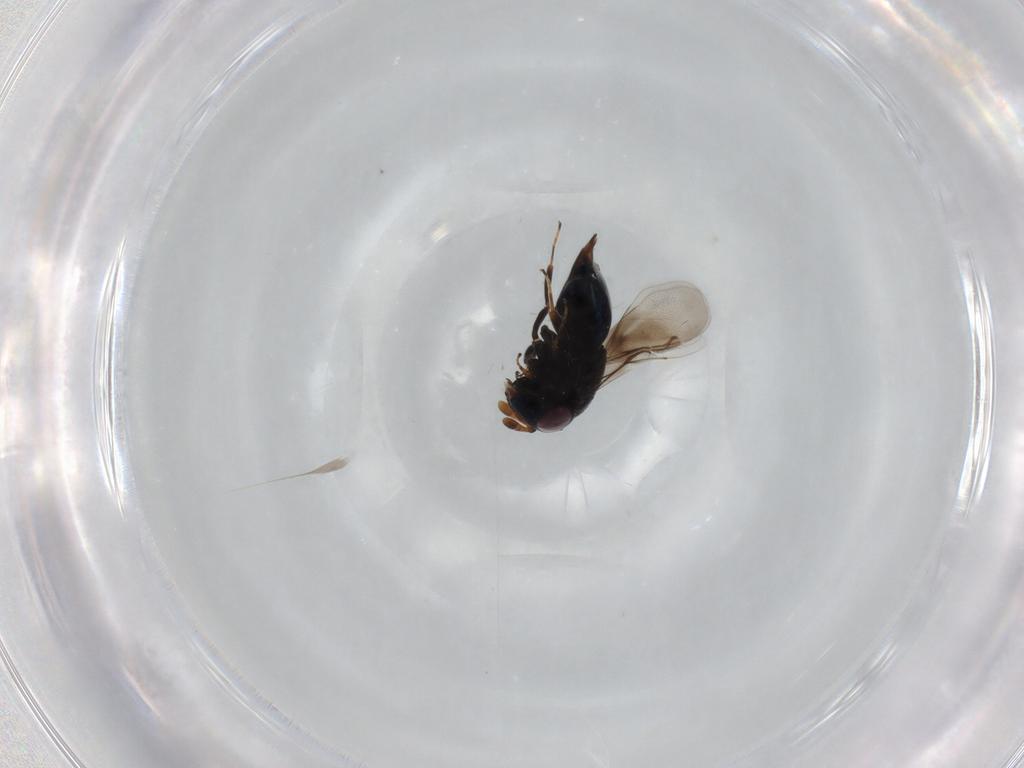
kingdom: Animalia
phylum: Arthropoda
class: Insecta
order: Hymenoptera
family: Encyrtidae
